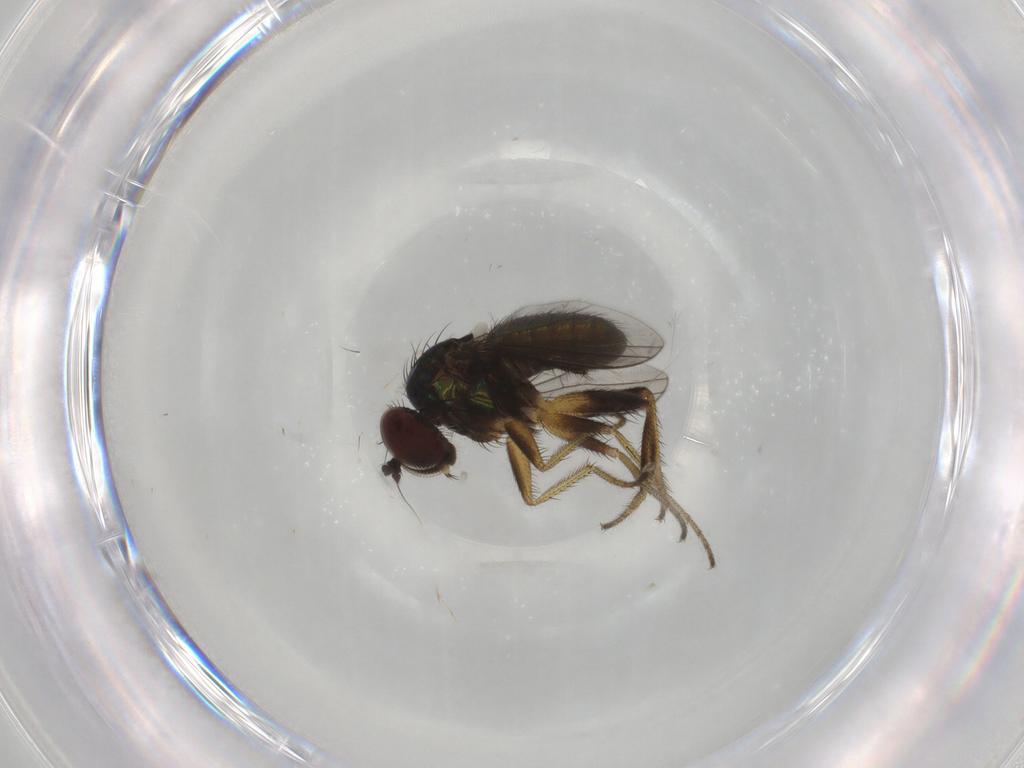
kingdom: Animalia
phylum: Arthropoda
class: Insecta
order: Diptera
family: Dolichopodidae
